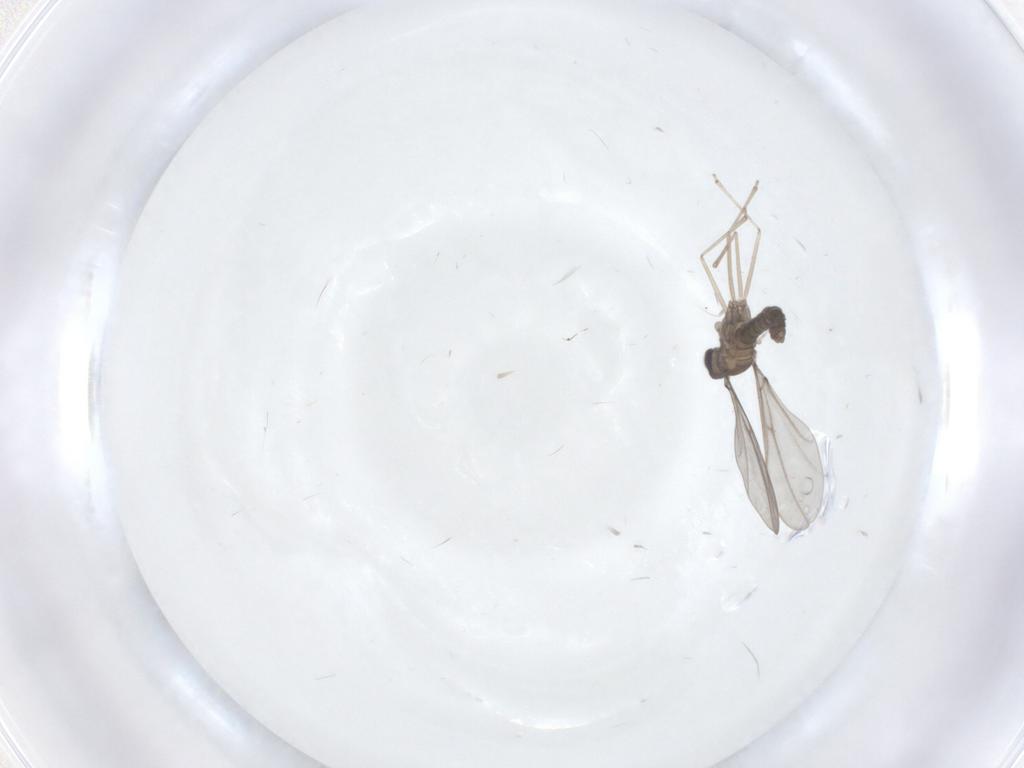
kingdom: Animalia
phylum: Arthropoda
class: Insecta
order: Diptera
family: Cecidomyiidae
